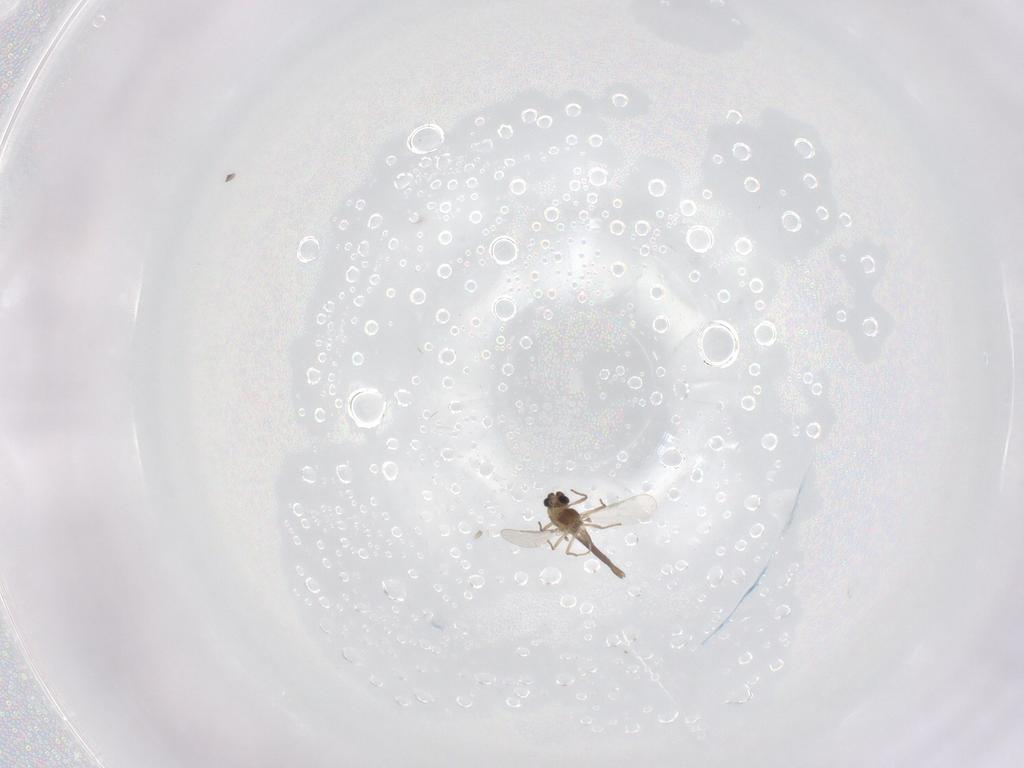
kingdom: Animalia
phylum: Arthropoda
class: Insecta
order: Diptera
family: Chironomidae
